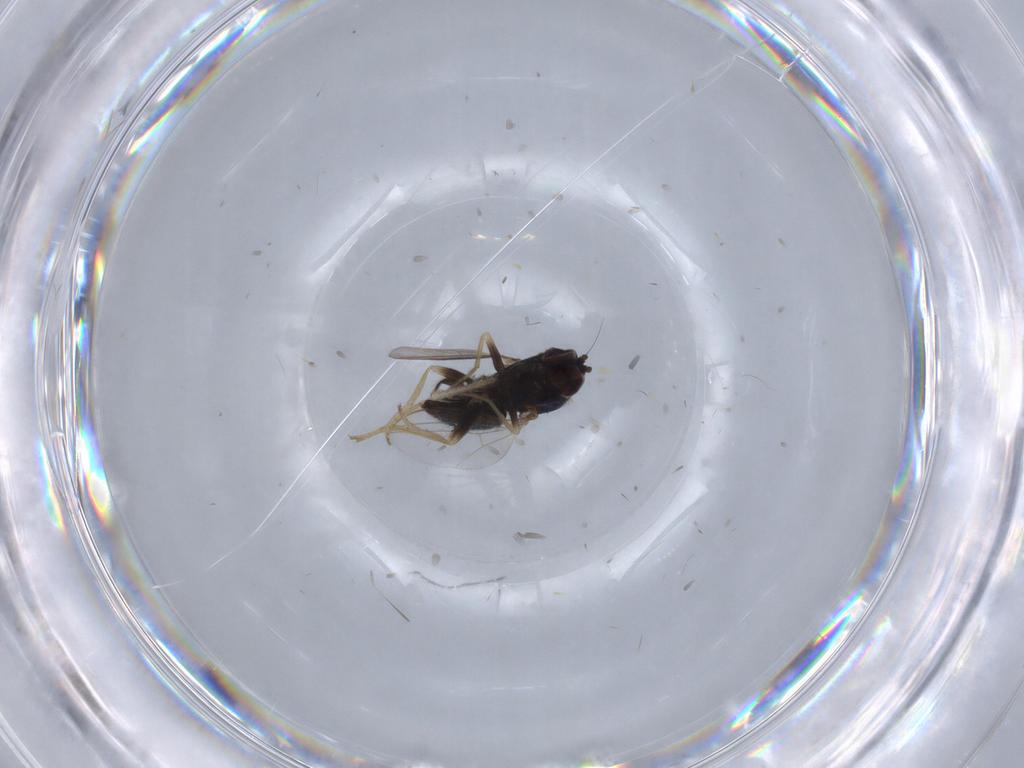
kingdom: Animalia
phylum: Arthropoda
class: Insecta
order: Diptera
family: Dolichopodidae
